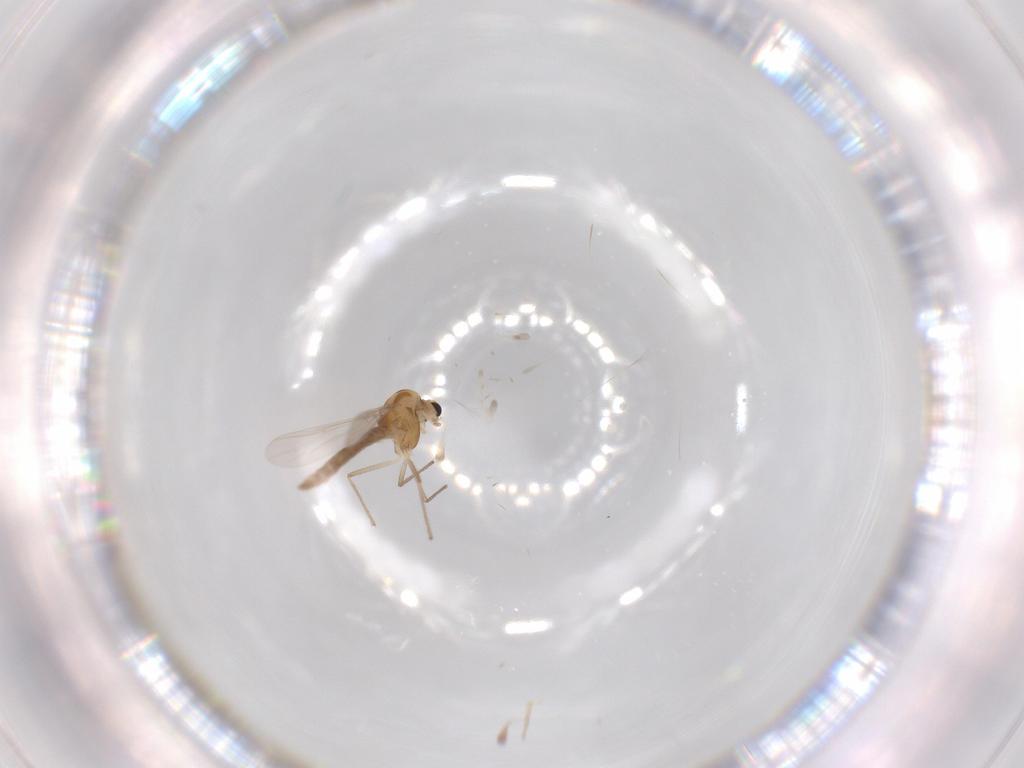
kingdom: Animalia
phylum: Arthropoda
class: Insecta
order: Diptera
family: Chironomidae
